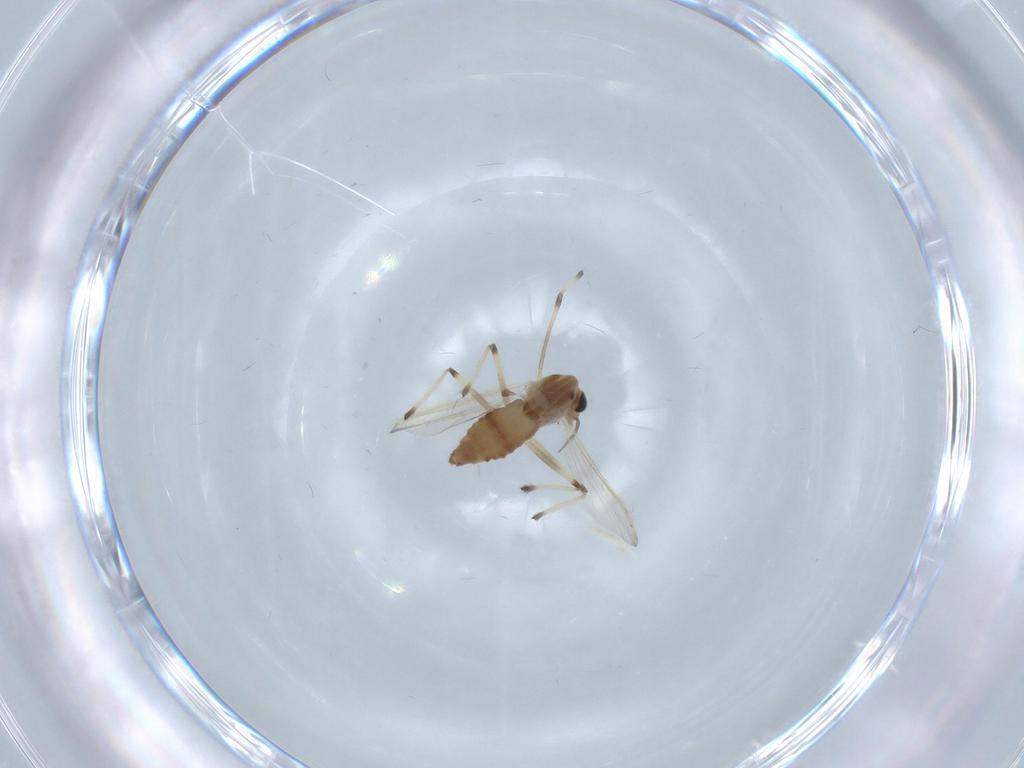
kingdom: Animalia
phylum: Arthropoda
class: Insecta
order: Diptera
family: Chironomidae
